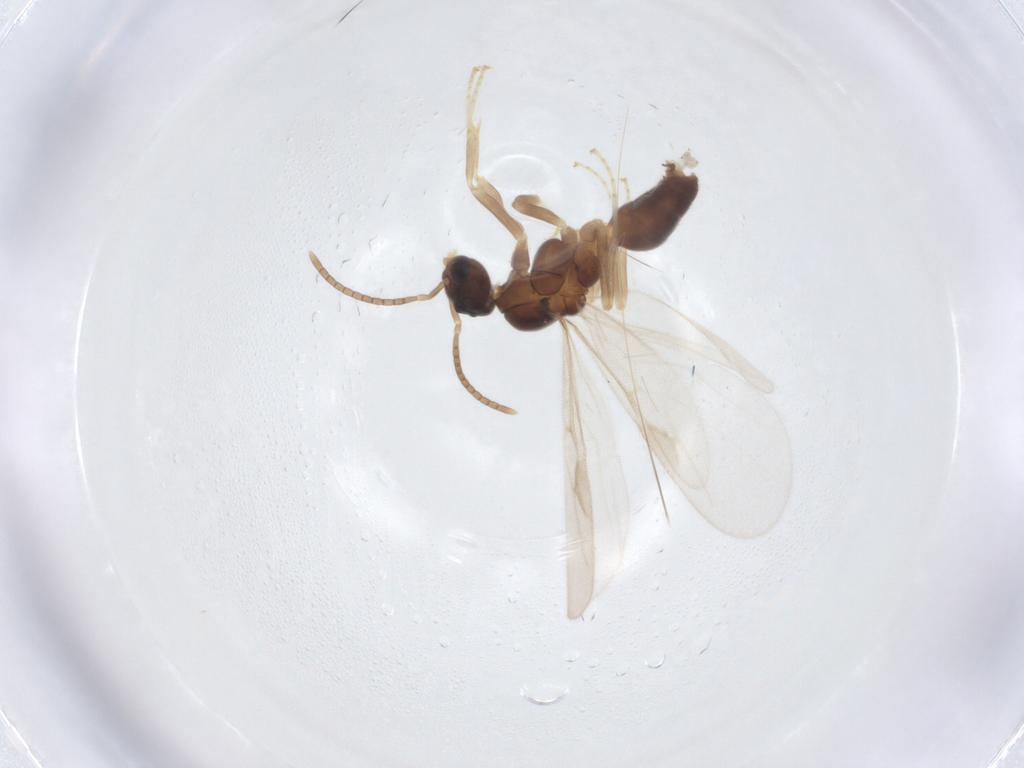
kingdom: Animalia
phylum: Arthropoda
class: Insecta
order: Hymenoptera
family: Formicidae
